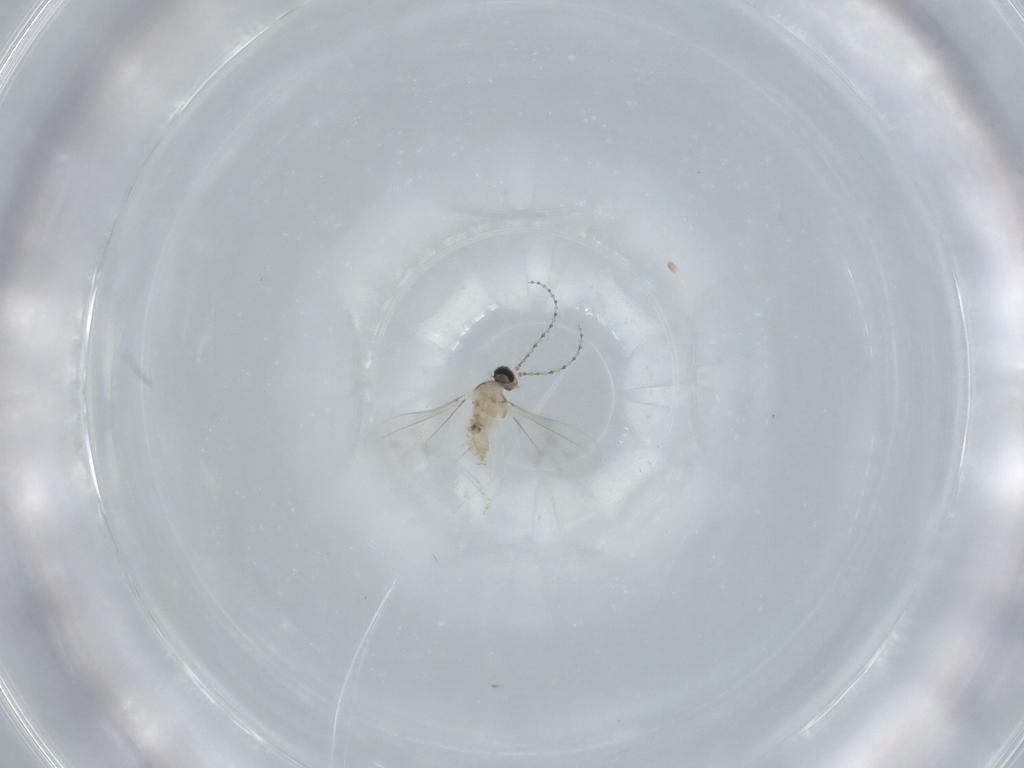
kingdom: Animalia
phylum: Arthropoda
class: Insecta
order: Diptera
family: Cecidomyiidae
